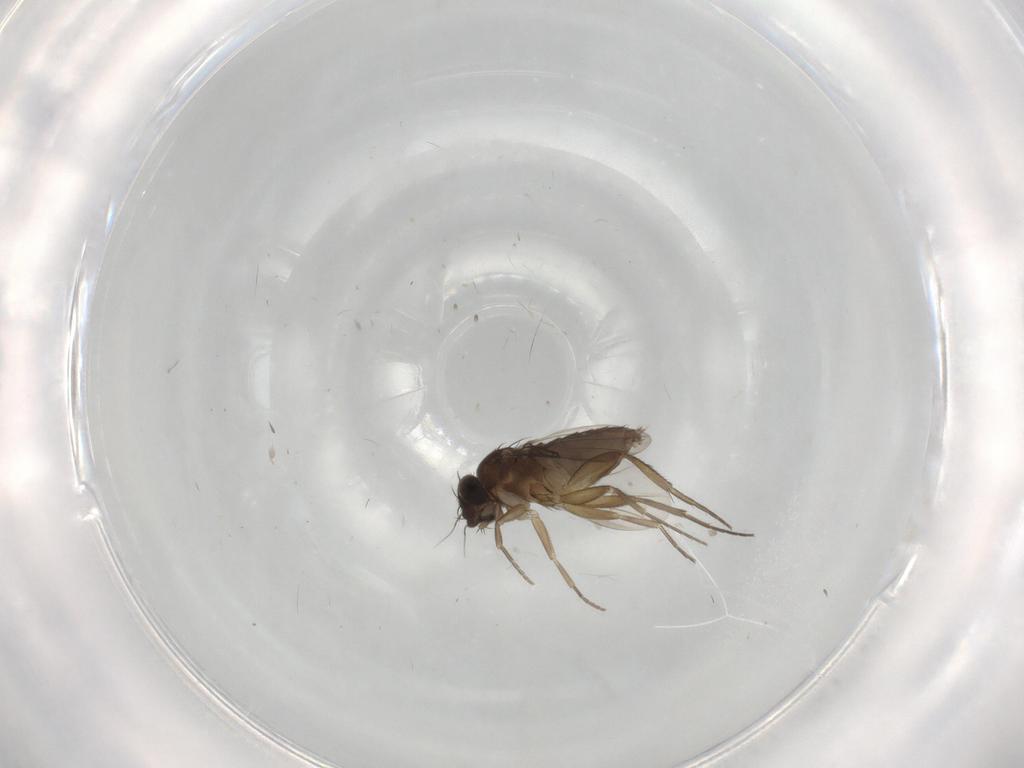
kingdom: Animalia
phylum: Arthropoda
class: Insecta
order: Diptera
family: Phoridae
